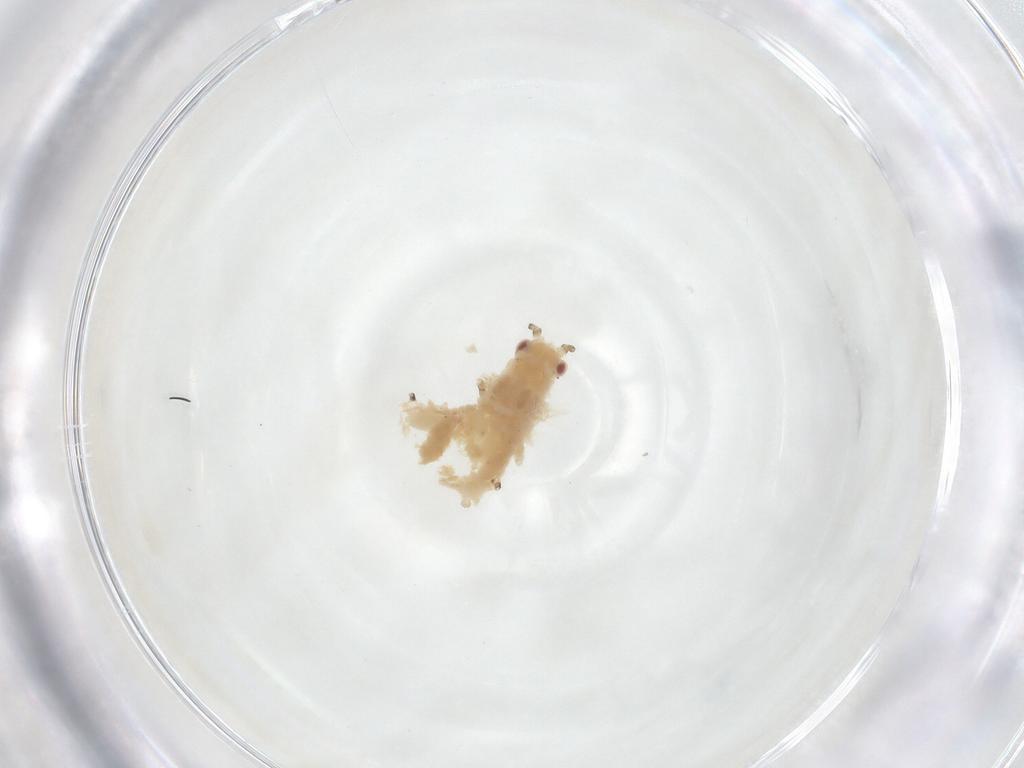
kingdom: Animalia
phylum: Arthropoda
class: Insecta
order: Hemiptera
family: Aphididae
